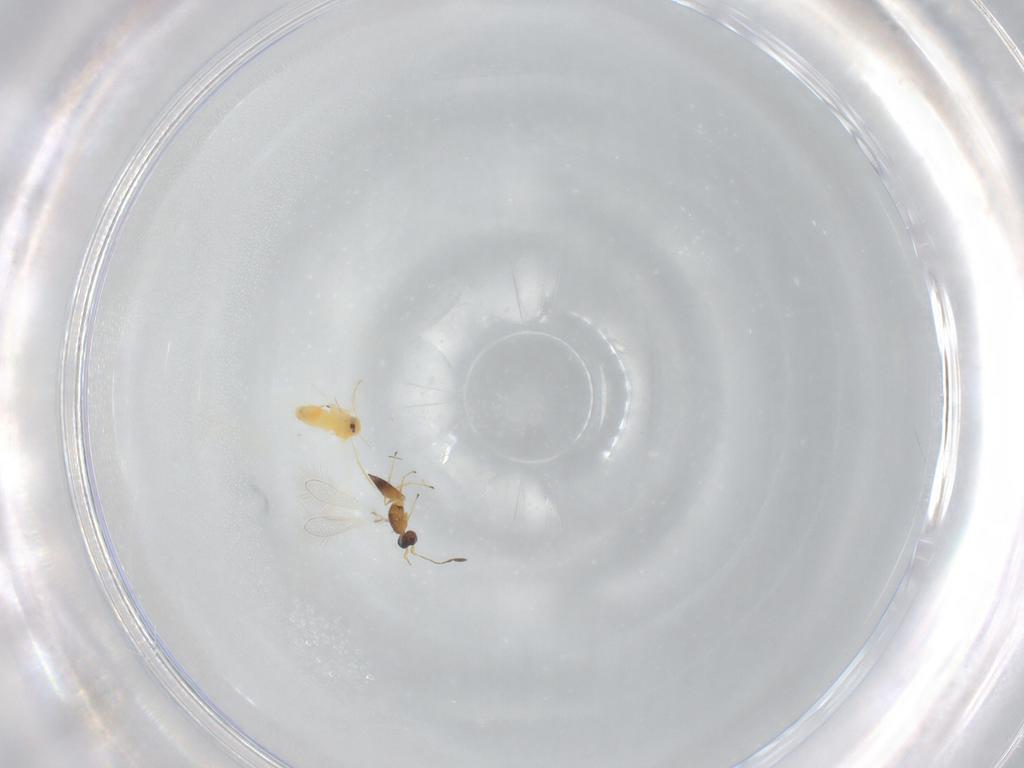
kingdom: Animalia
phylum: Arthropoda
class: Insecta
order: Hymenoptera
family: Mymaridae
